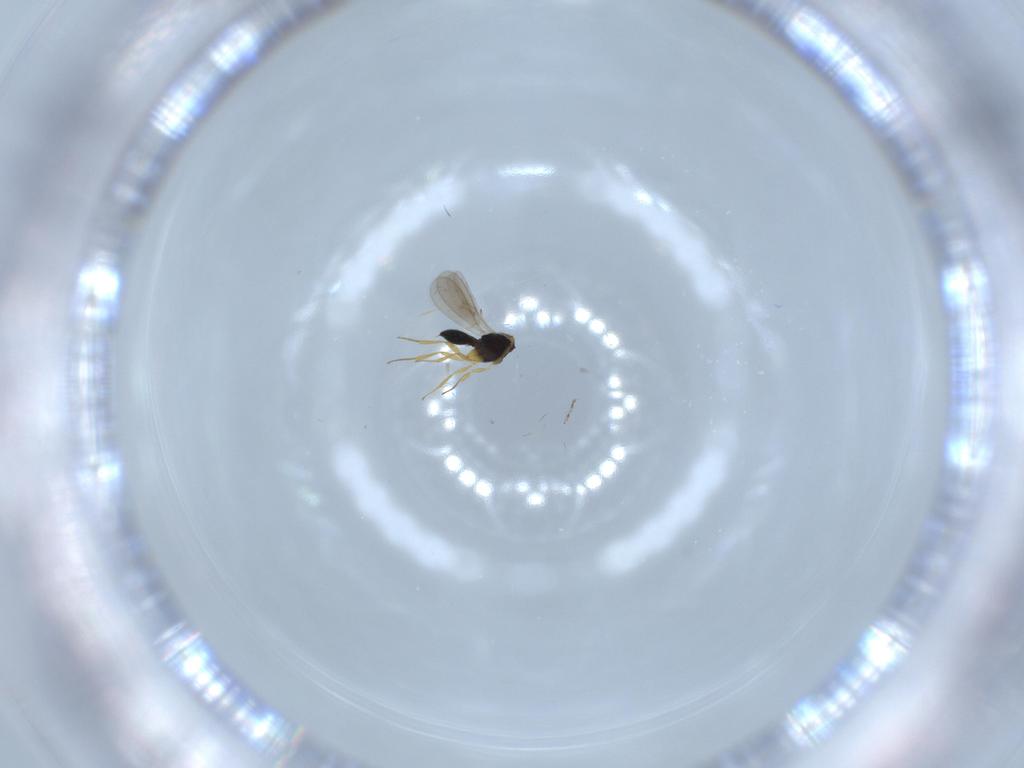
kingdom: Animalia
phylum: Arthropoda
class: Insecta
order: Hymenoptera
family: Scelionidae
